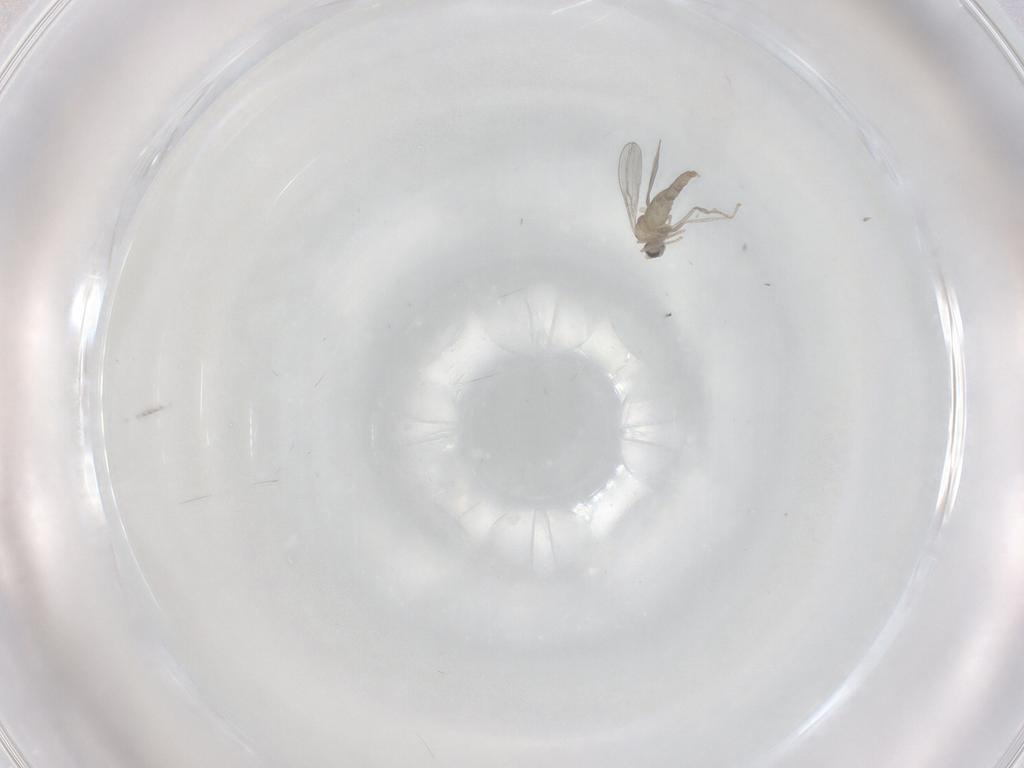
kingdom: Animalia
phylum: Arthropoda
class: Insecta
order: Diptera
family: Cecidomyiidae
